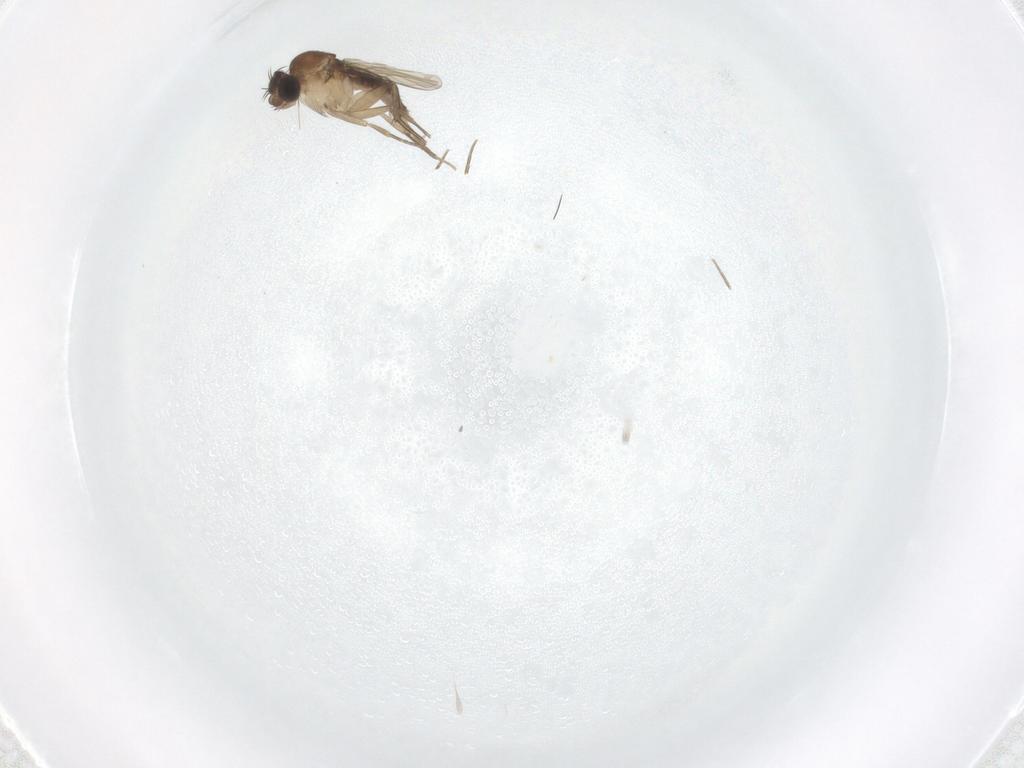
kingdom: Animalia
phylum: Arthropoda
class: Insecta
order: Diptera
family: Phoridae
